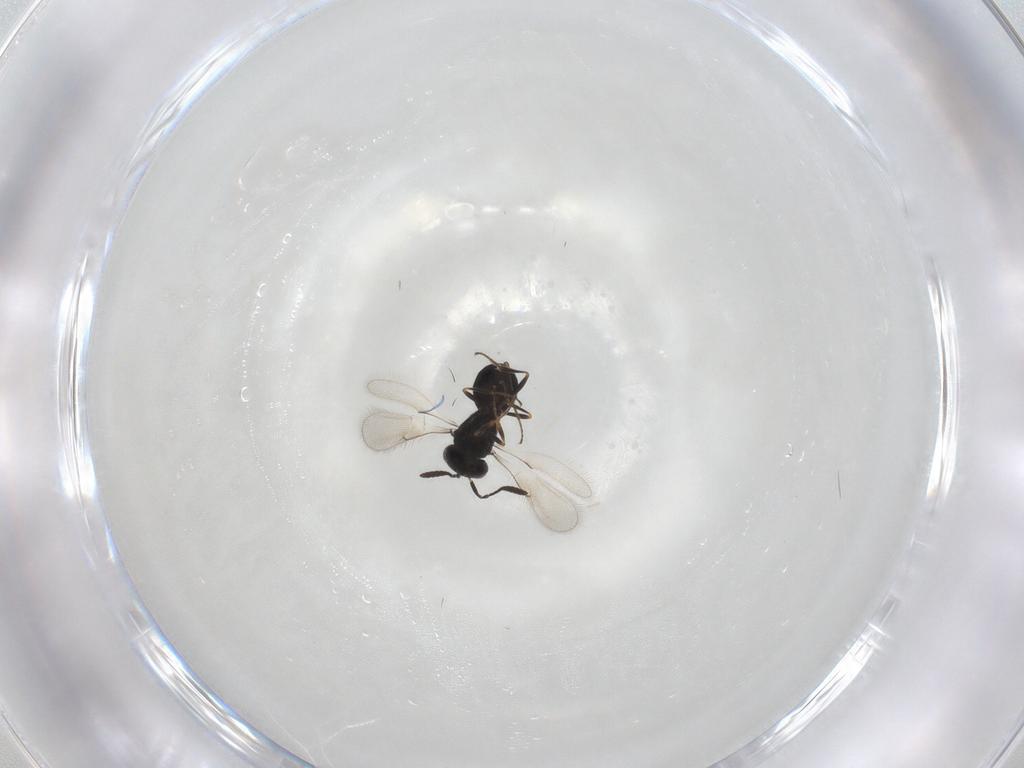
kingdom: Animalia
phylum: Arthropoda
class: Insecta
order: Hymenoptera
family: Scelionidae
